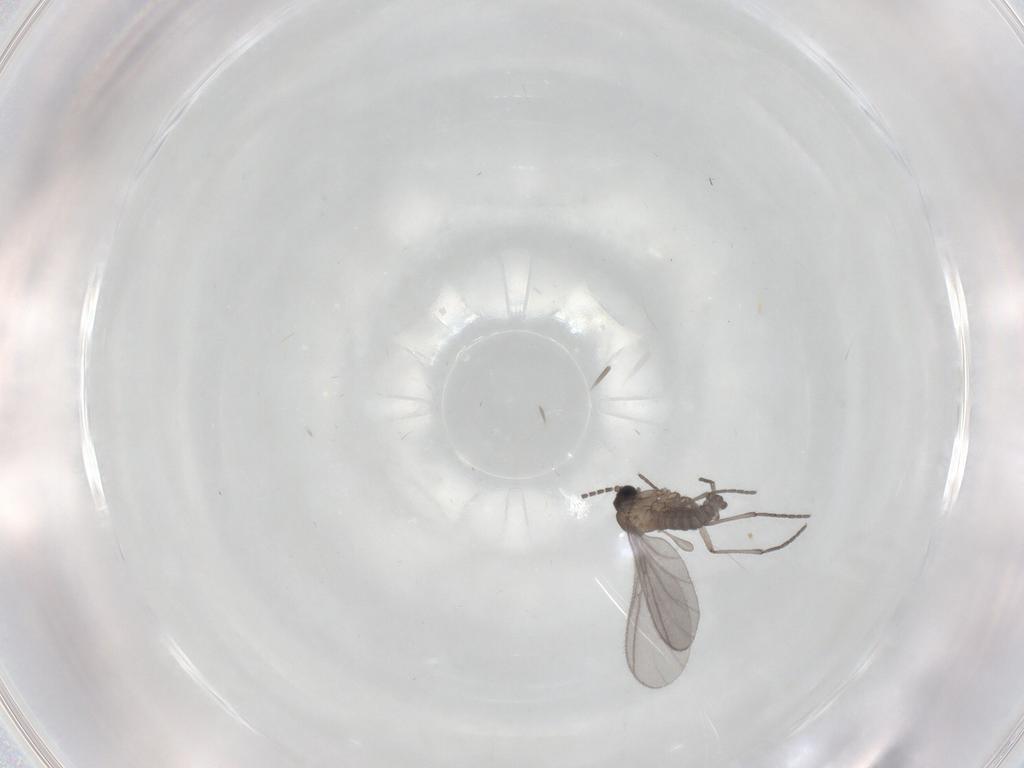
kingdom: Animalia
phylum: Arthropoda
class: Insecta
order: Diptera
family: Sciaridae
